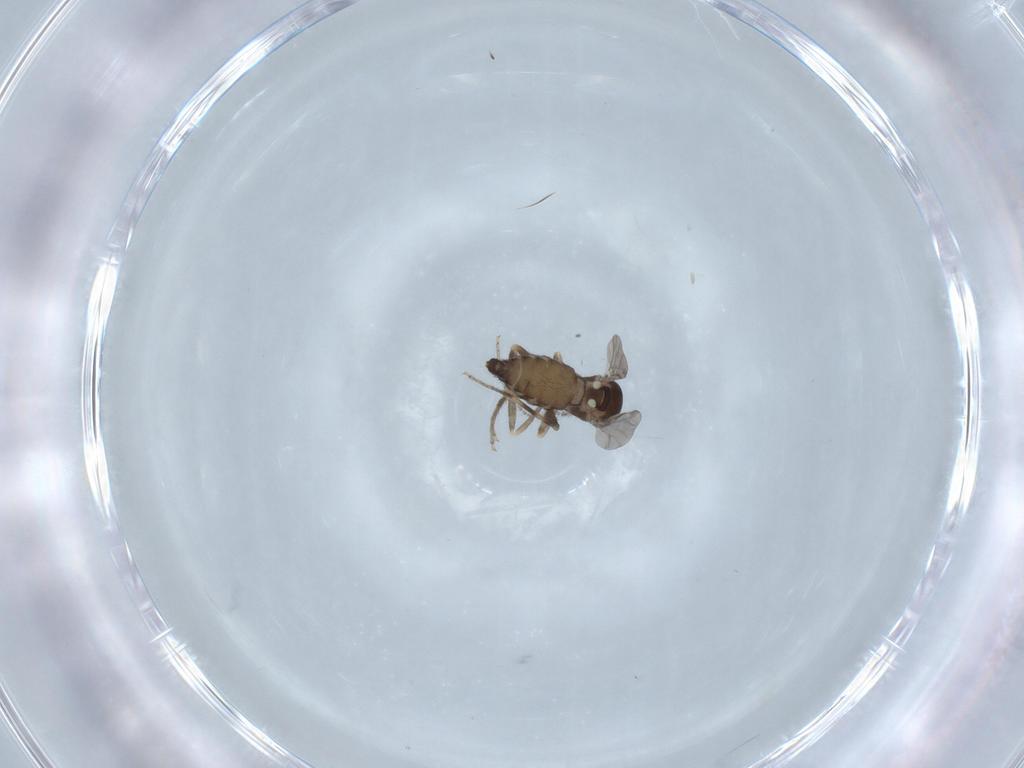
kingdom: Animalia
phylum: Arthropoda
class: Insecta
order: Diptera
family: Ceratopogonidae
